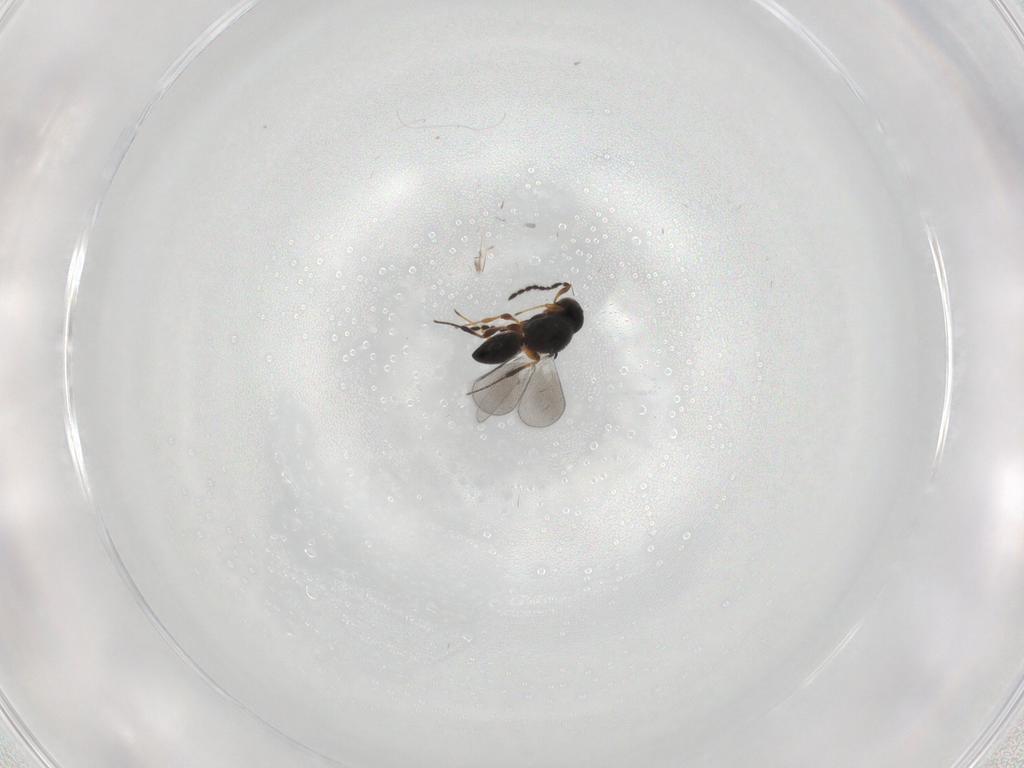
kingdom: Animalia
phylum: Arthropoda
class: Insecta
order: Hymenoptera
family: Platygastridae
